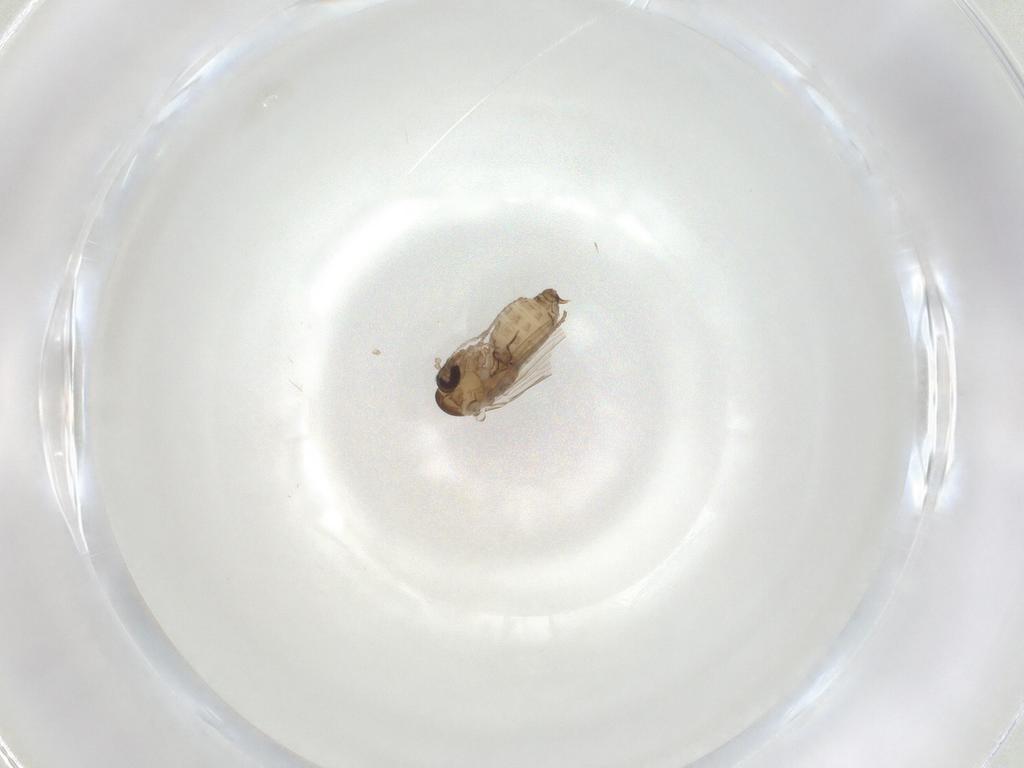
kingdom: Animalia
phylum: Arthropoda
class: Insecta
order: Diptera
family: Psychodidae
